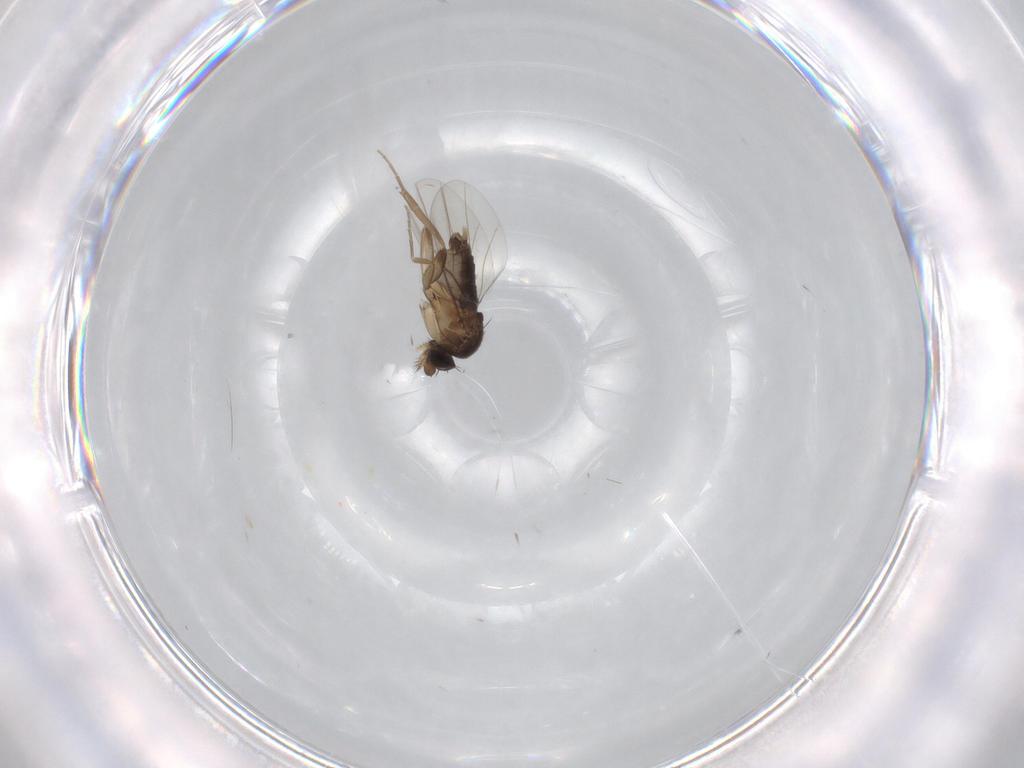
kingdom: Animalia
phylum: Arthropoda
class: Insecta
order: Diptera
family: Phoridae
